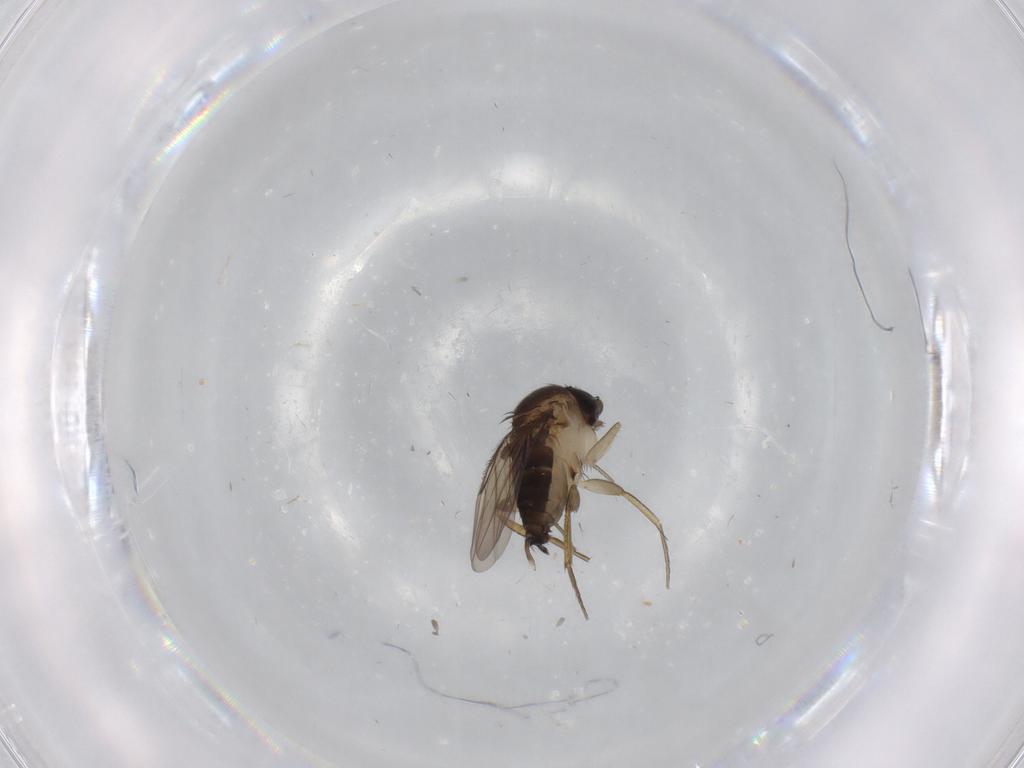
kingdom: Animalia
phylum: Arthropoda
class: Insecta
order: Diptera
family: Phoridae
